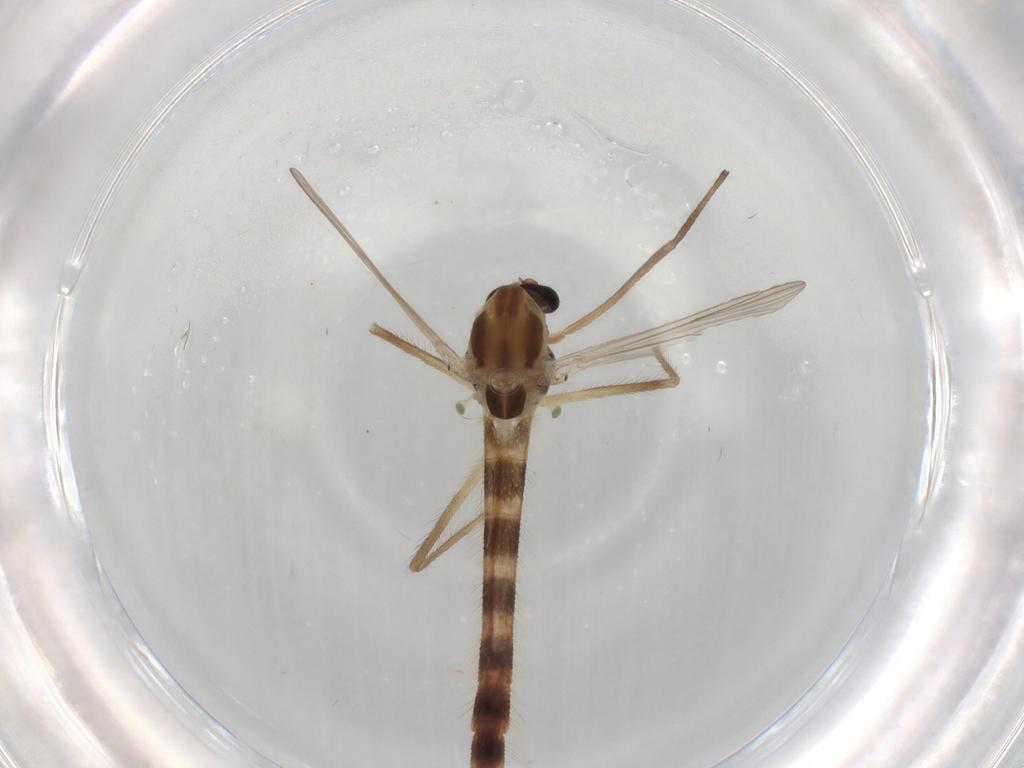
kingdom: Animalia
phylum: Arthropoda
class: Insecta
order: Diptera
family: Chironomidae
